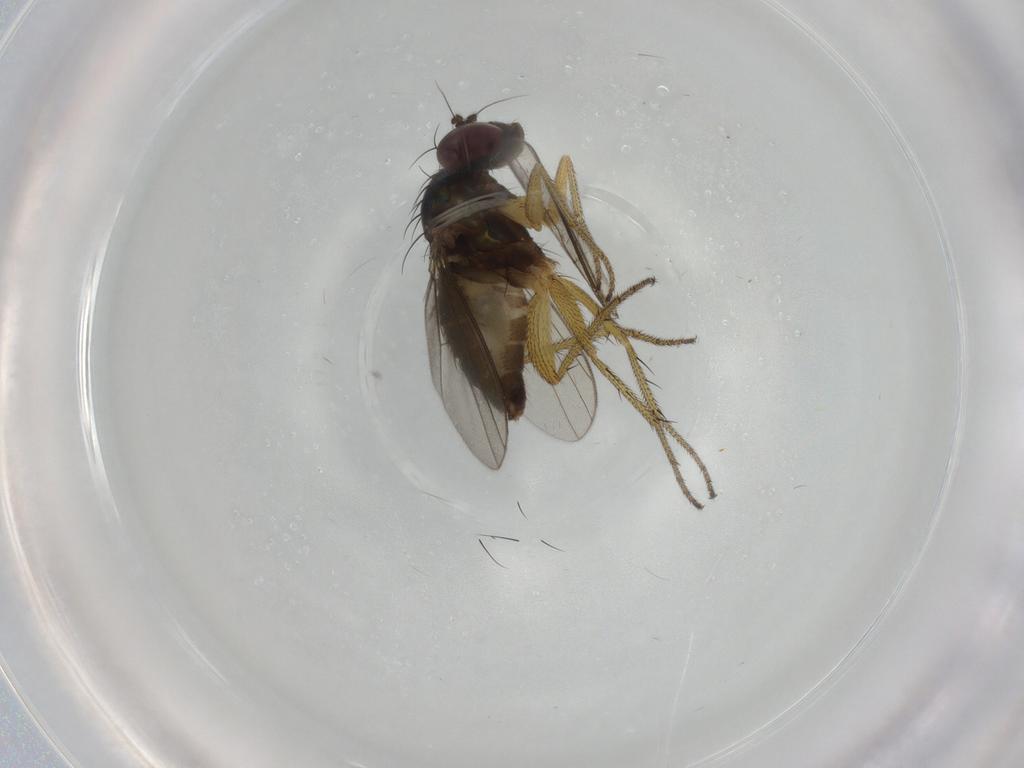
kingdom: Animalia
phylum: Arthropoda
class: Insecta
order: Diptera
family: Dolichopodidae
